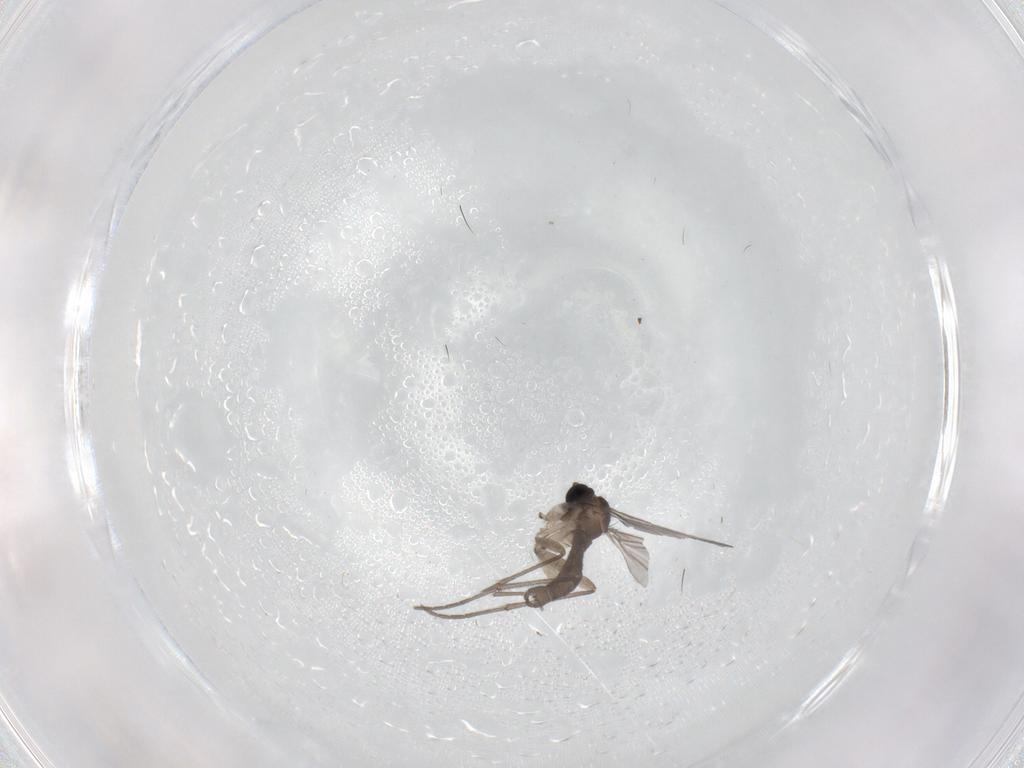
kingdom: Animalia
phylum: Arthropoda
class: Insecta
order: Diptera
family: Sciaridae
